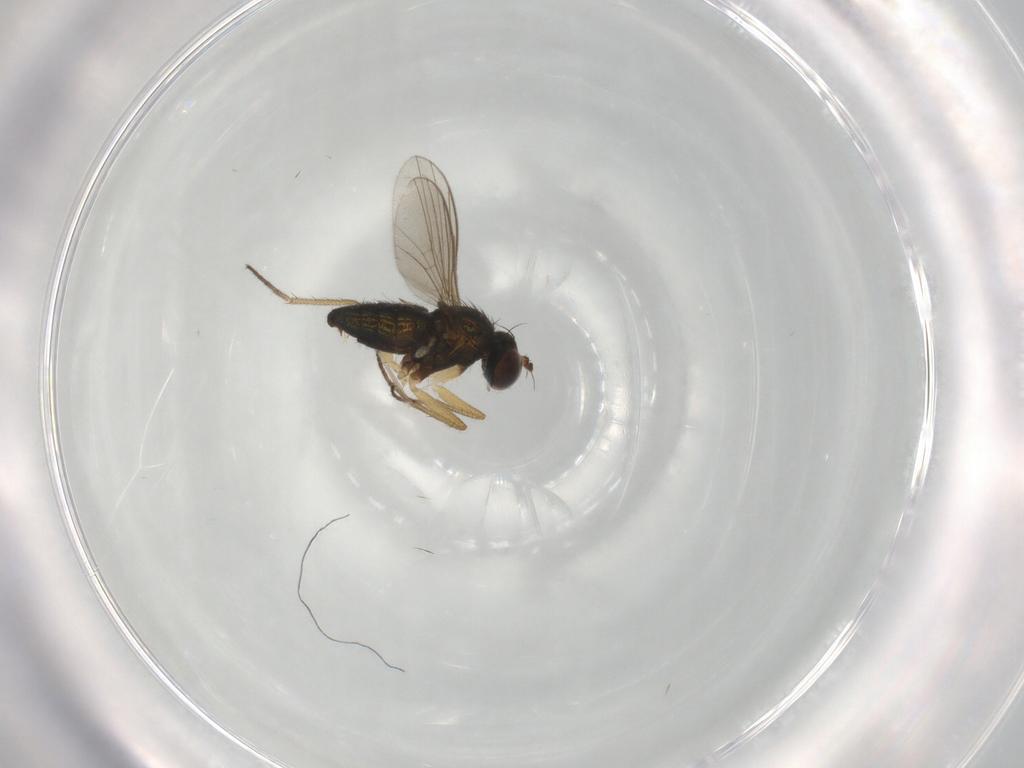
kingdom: Animalia
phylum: Arthropoda
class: Insecta
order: Diptera
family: Dolichopodidae
